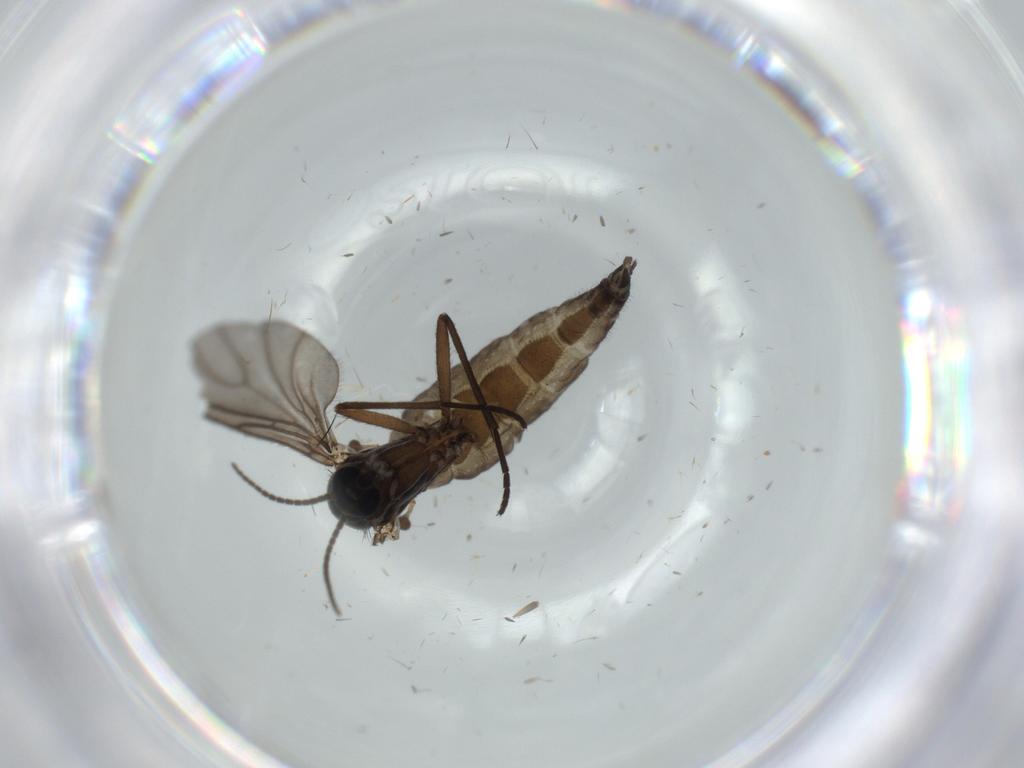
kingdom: Animalia
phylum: Arthropoda
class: Insecta
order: Diptera
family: Sciaridae
